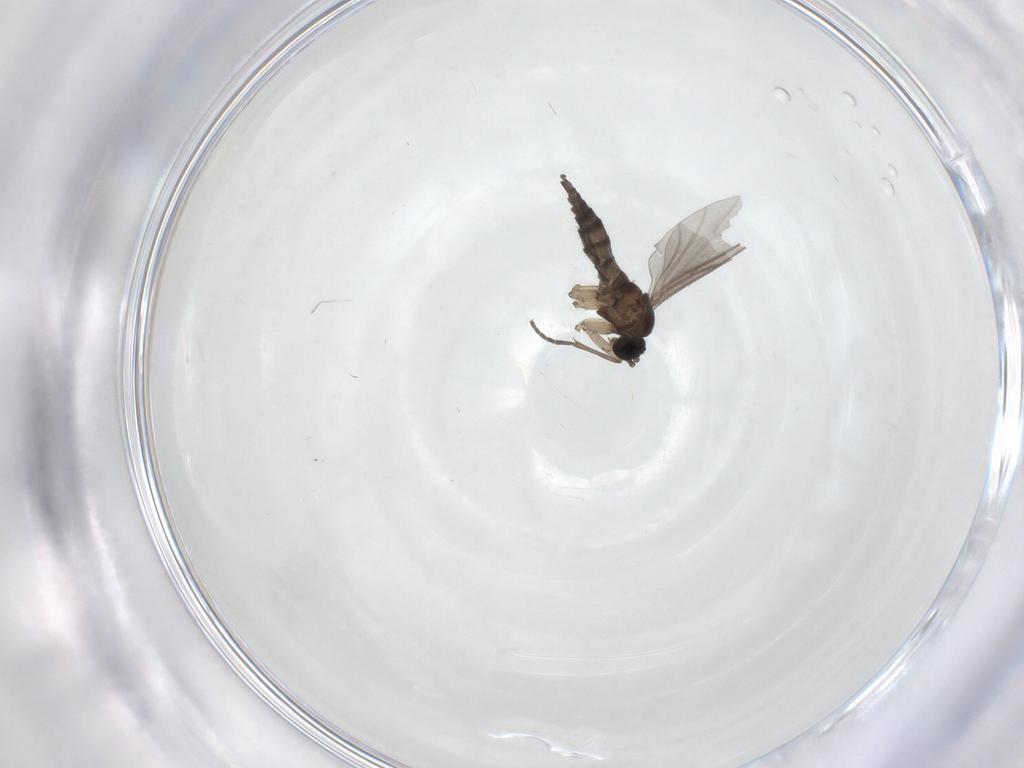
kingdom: Animalia
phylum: Arthropoda
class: Insecta
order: Diptera
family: Sciaridae
